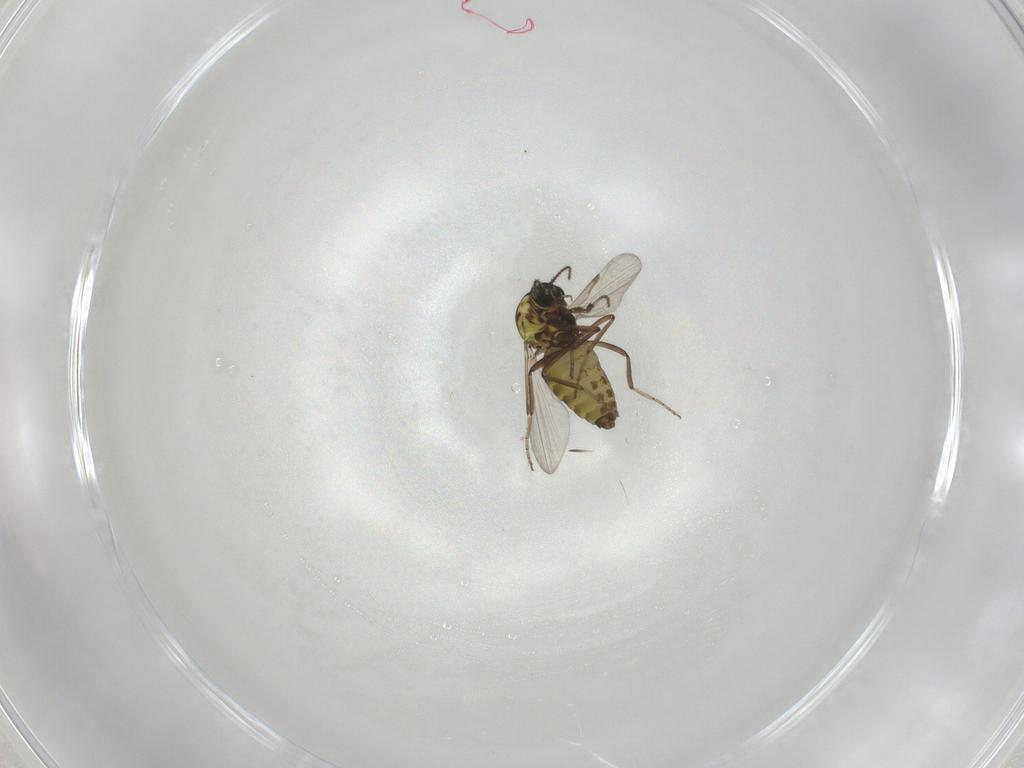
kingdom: Animalia
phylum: Arthropoda
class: Insecta
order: Diptera
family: Ceratopogonidae
